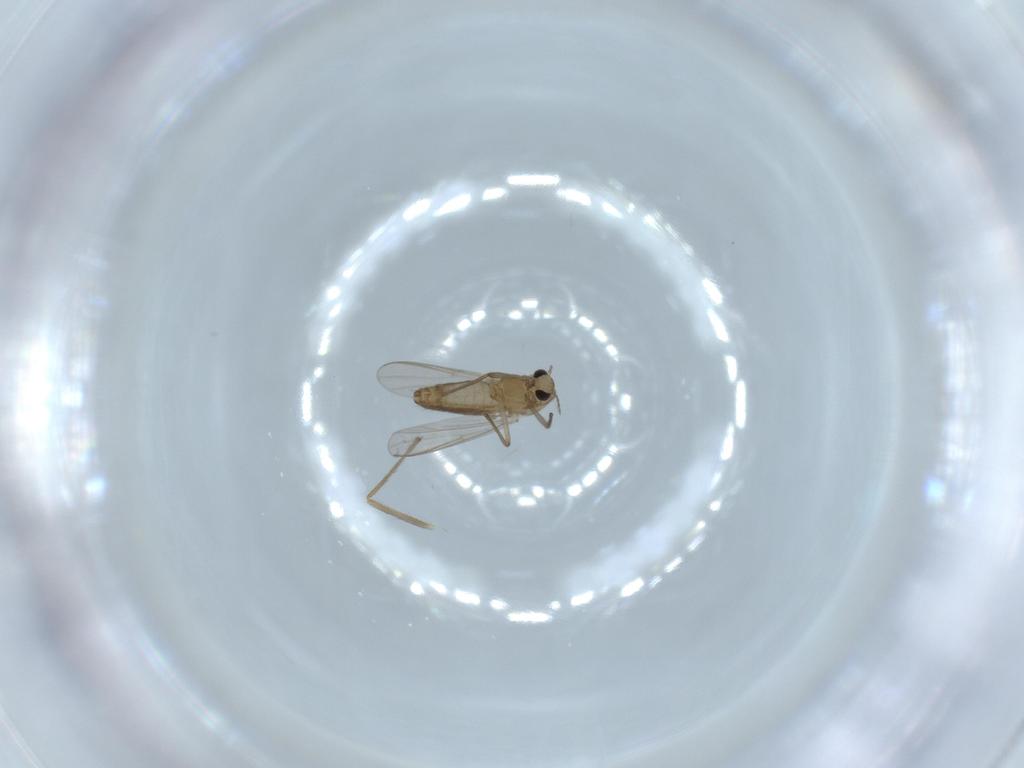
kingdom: Animalia
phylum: Arthropoda
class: Insecta
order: Diptera
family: Chironomidae
